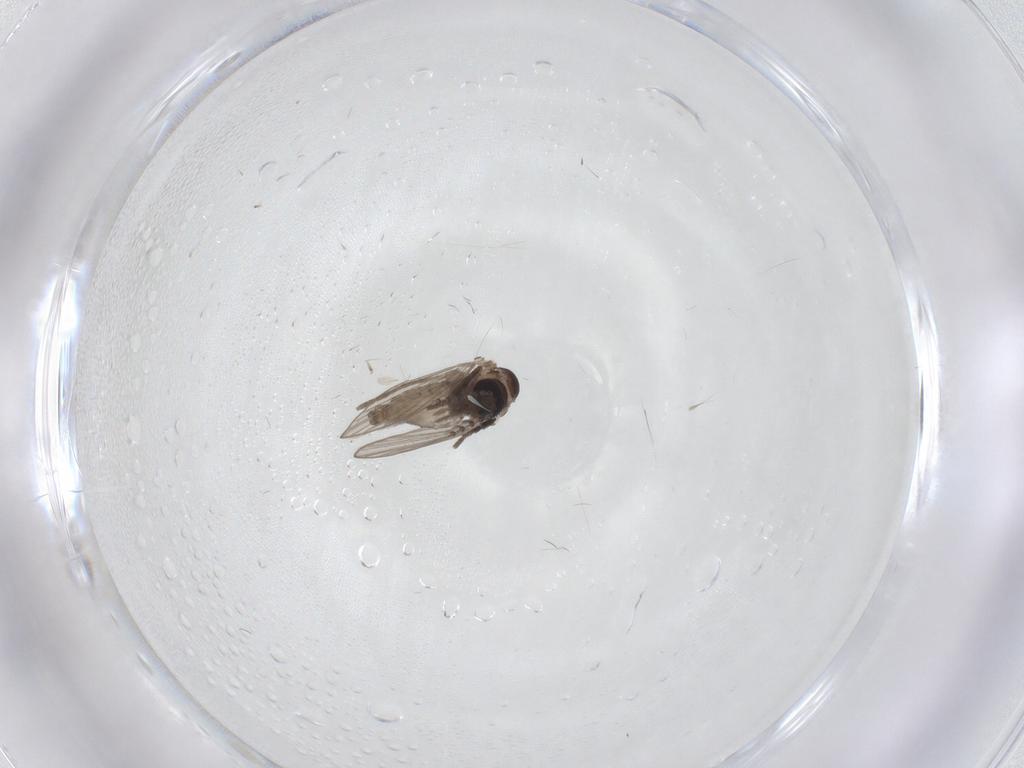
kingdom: Animalia
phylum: Arthropoda
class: Insecta
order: Diptera
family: Psychodidae
